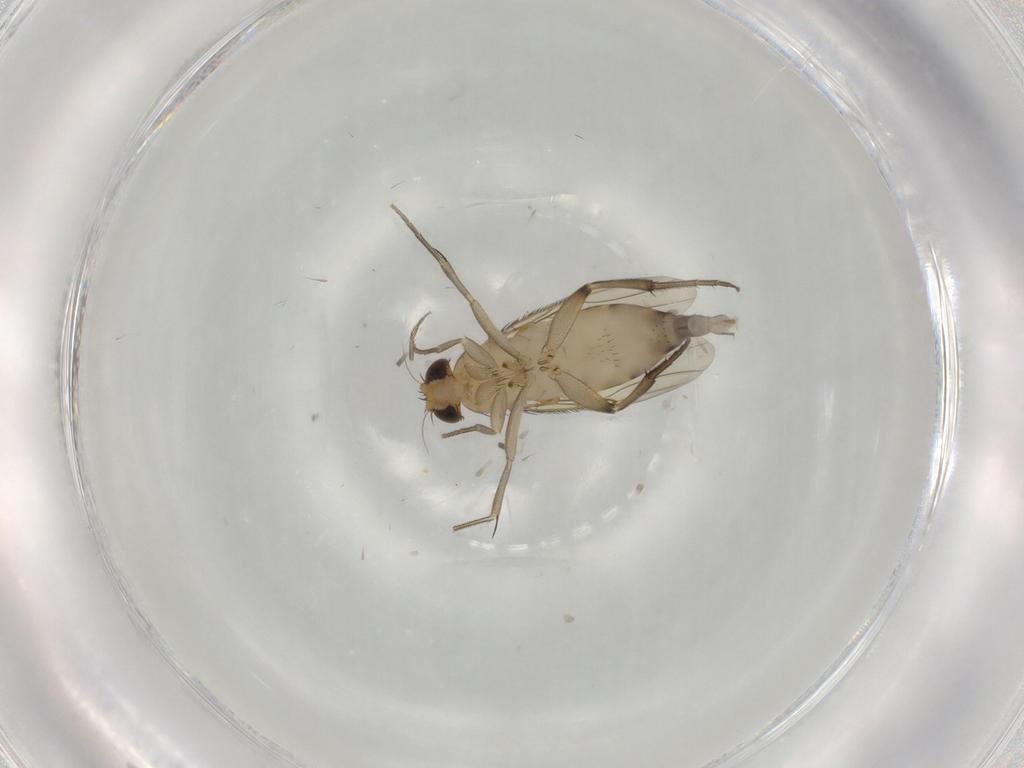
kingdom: Animalia
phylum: Arthropoda
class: Insecta
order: Diptera
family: Phoridae
